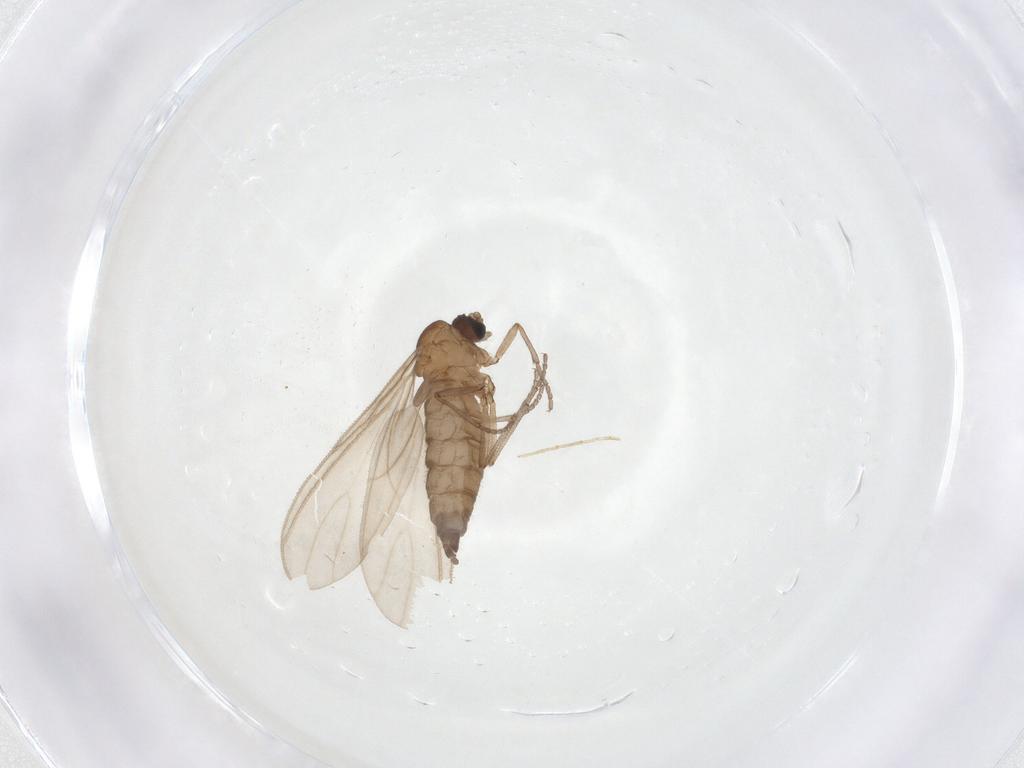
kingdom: Animalia
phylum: Arthropoda
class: Insecta
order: Diptera
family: Sciaridae
